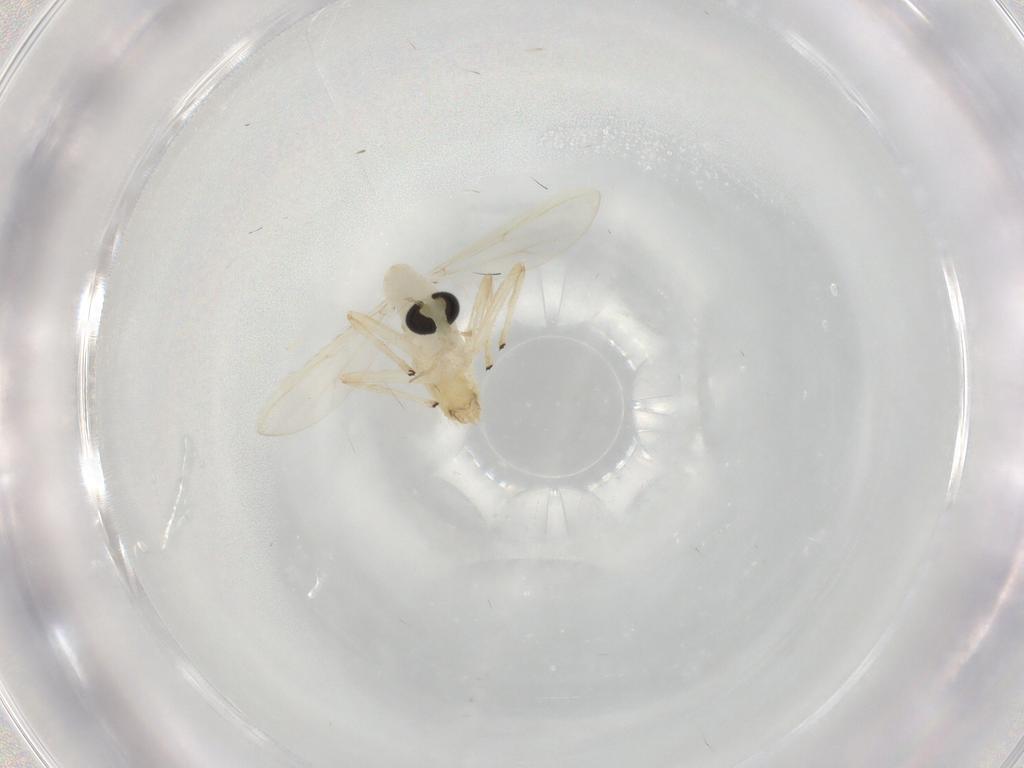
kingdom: Animalia
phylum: Arthropoda
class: Insecta
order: Diptera
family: Chironomidae
